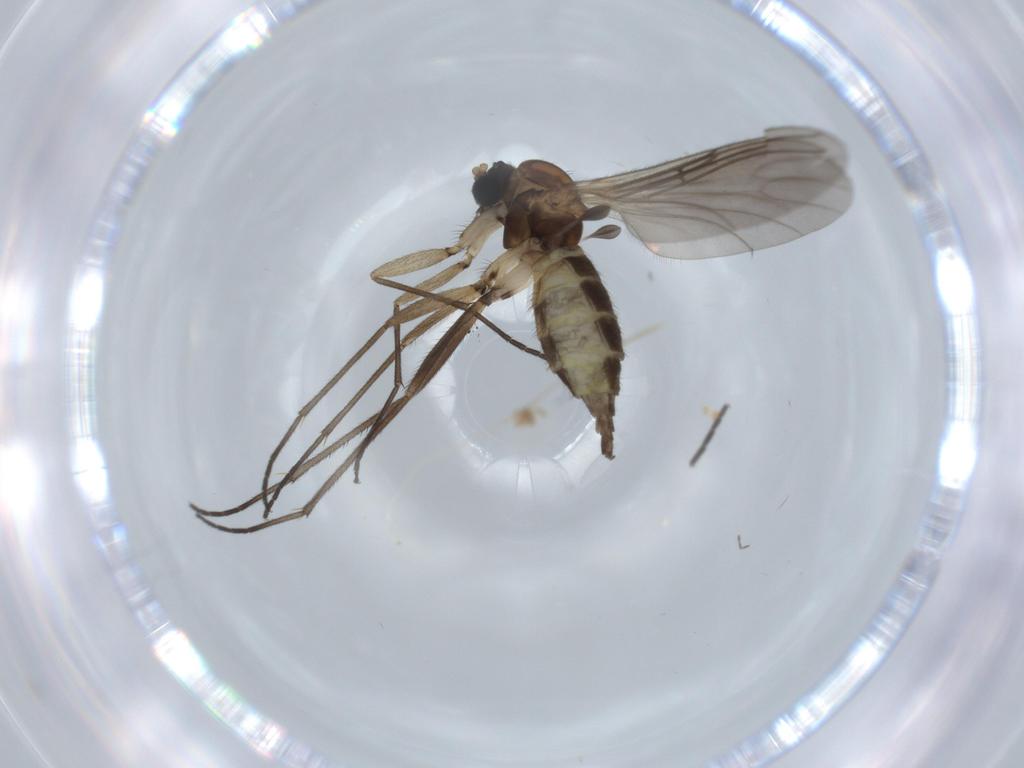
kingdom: Animalia
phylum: Arthropoda
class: Insecta
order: Diptera
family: Sciaridae
